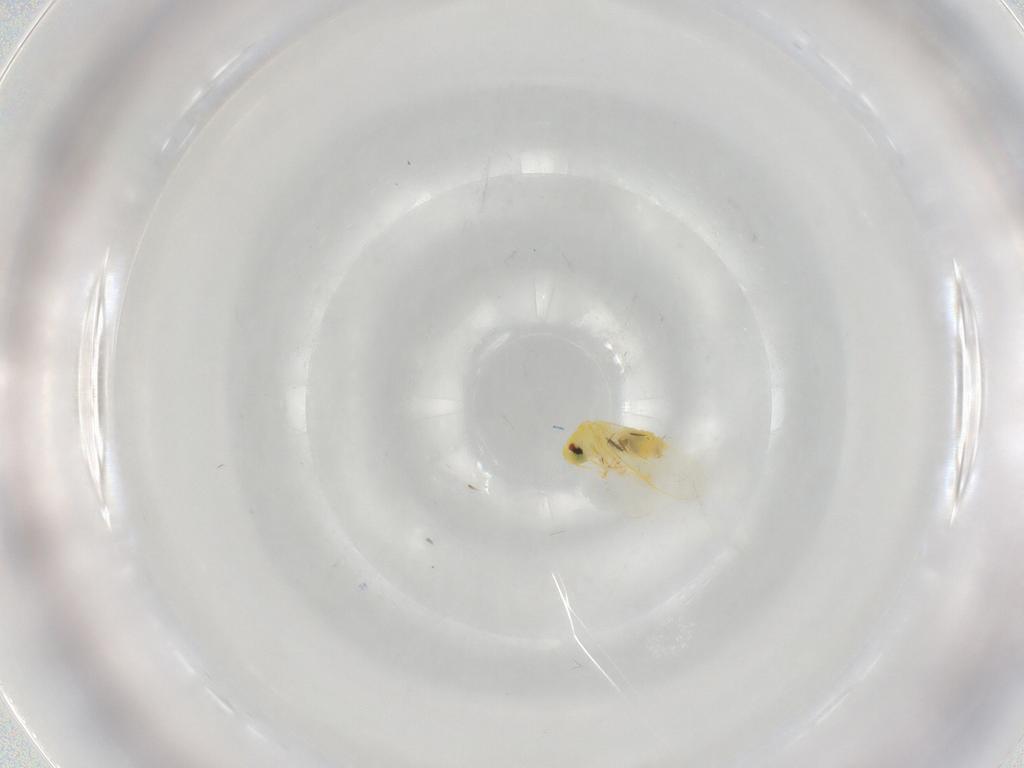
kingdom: Animalia
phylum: Arthropoda
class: Insecta
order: Hemiptera
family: Aleyrodidae
